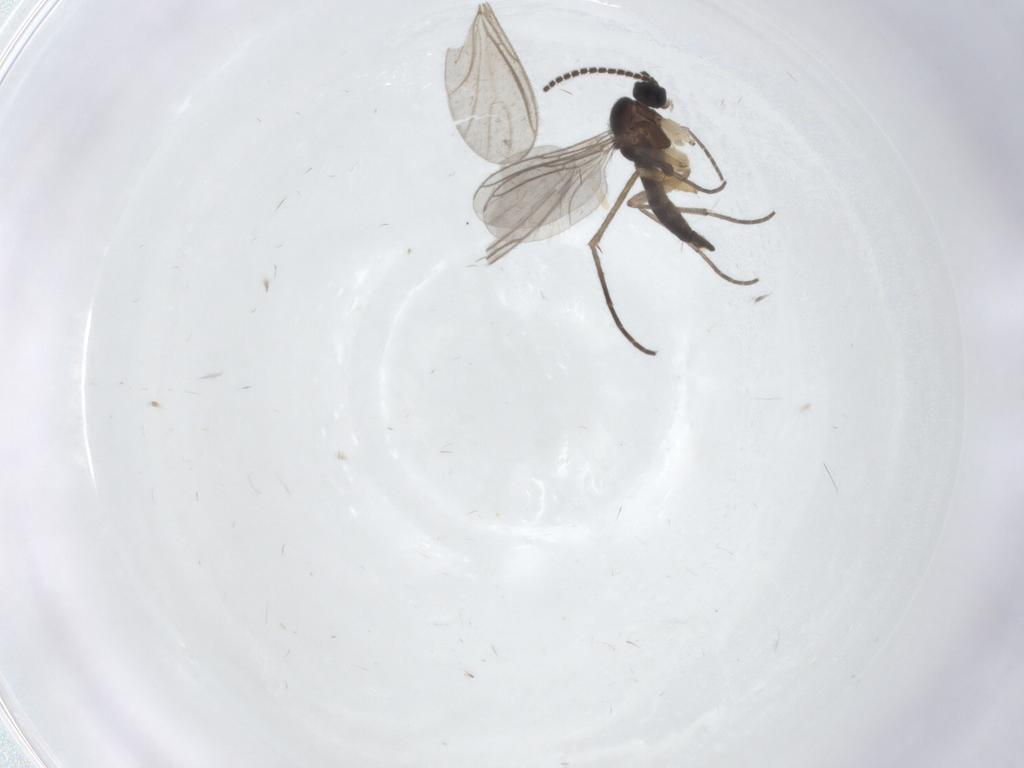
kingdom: Animalia
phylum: Arthropoda
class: Insecta
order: Diptera
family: Sciaridae
